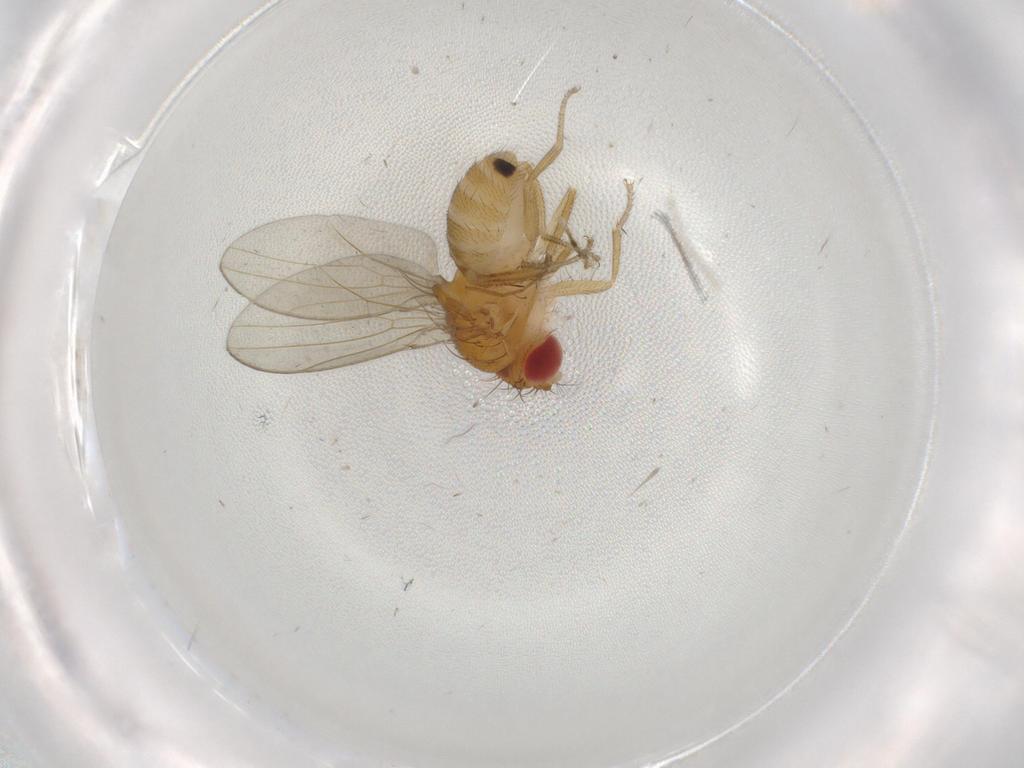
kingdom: Animalia
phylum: Arthropoda
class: Insecta
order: Diptera
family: Drosophilidae
